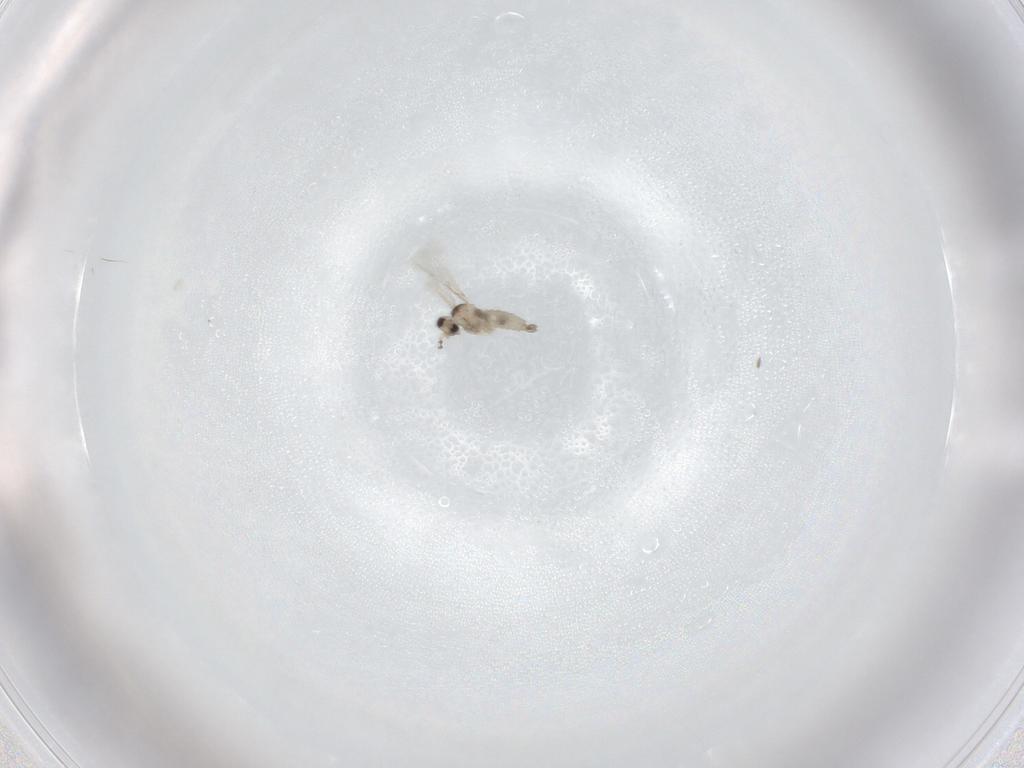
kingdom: Animalia
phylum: Arthropoda
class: Insecta
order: Diptera
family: Cecidomyiidae
